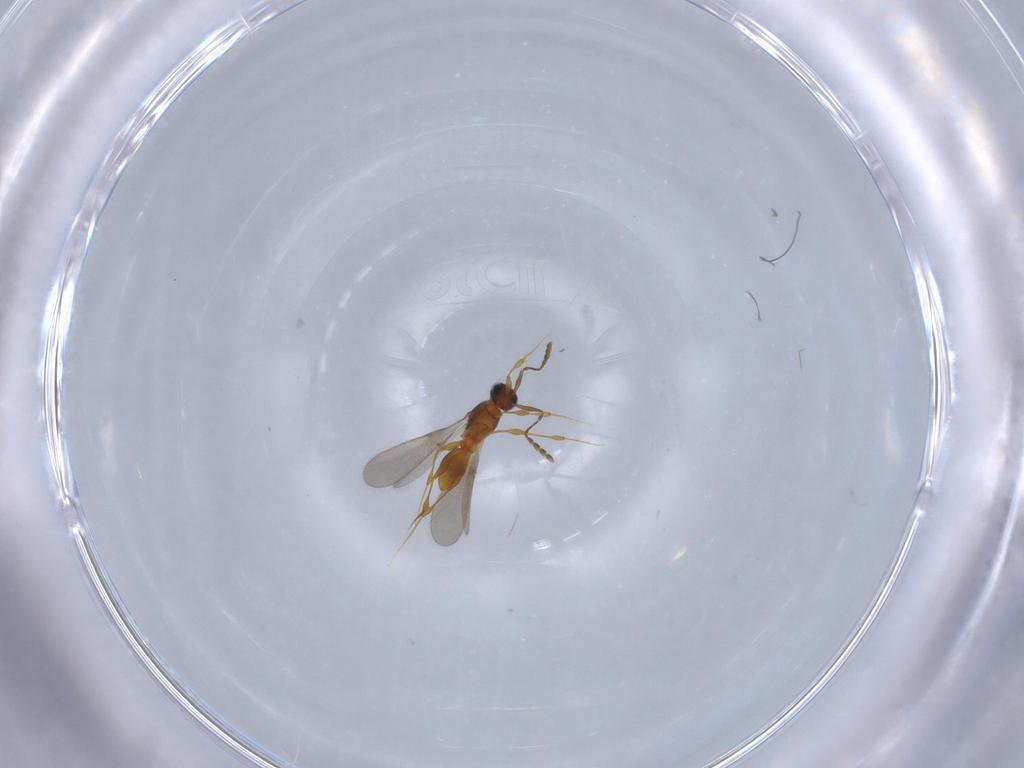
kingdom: Animalia
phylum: Arthropoda
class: Insecta
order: Hymenoptera
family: Platygastridae
